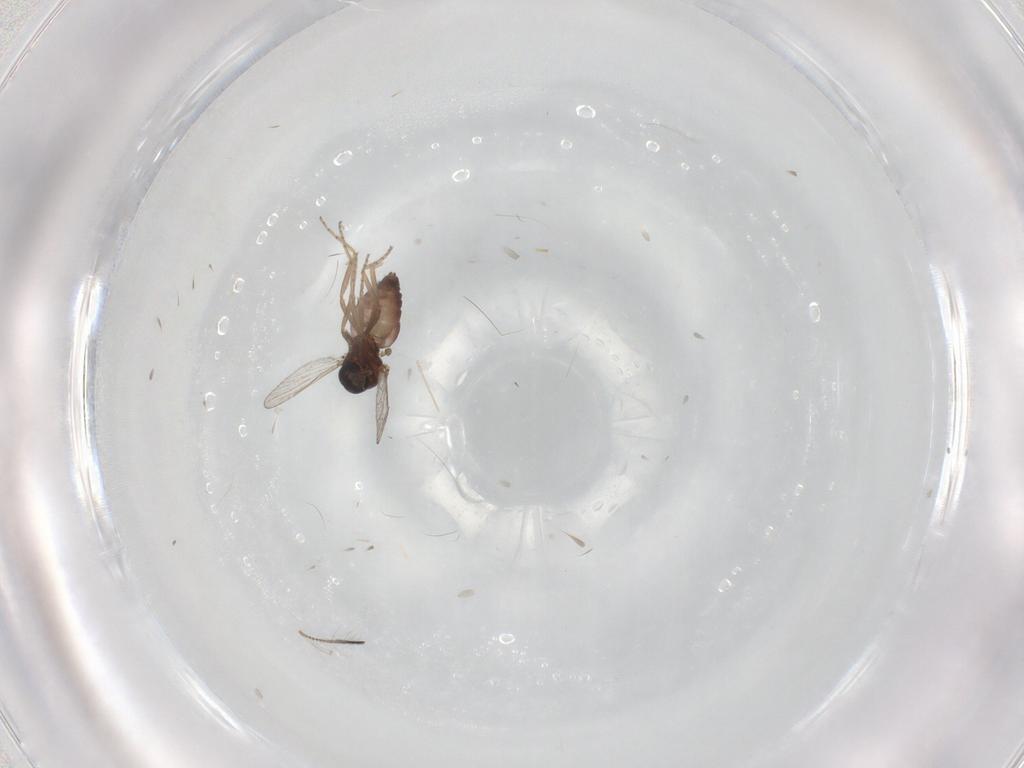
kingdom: Animalia
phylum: Arthropoda
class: Insecta
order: Diptera
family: Ceratopogonidae
